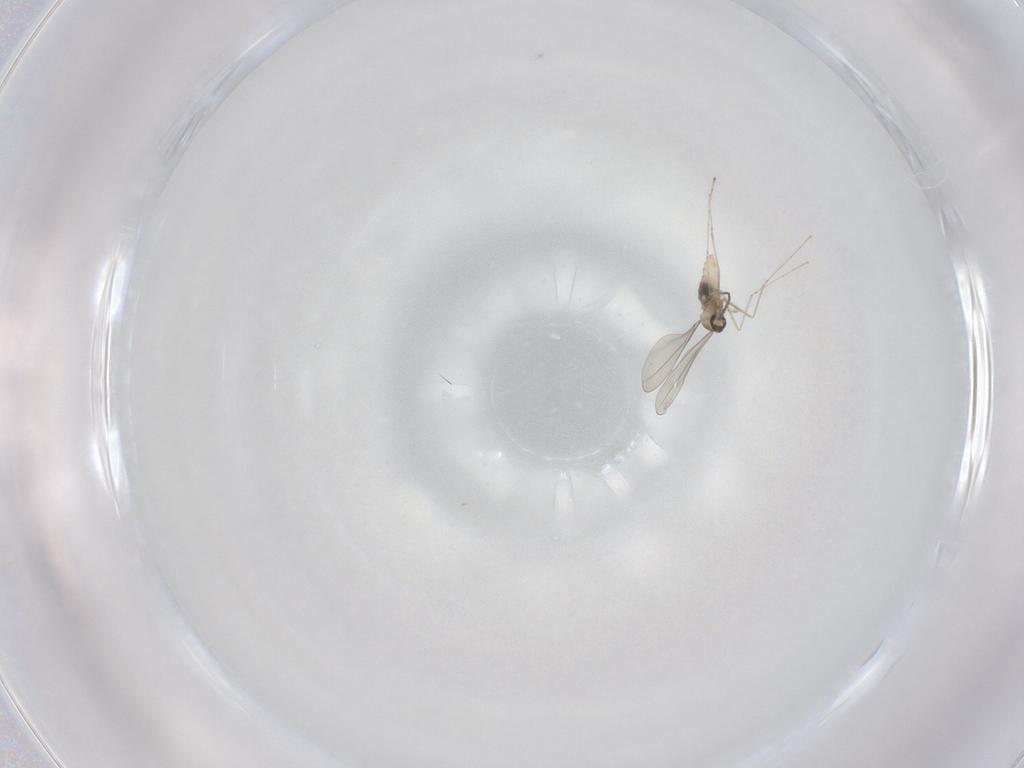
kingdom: Animalia
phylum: Arthropoda
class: Insecta
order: Diptera
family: Cecidomyiidae
